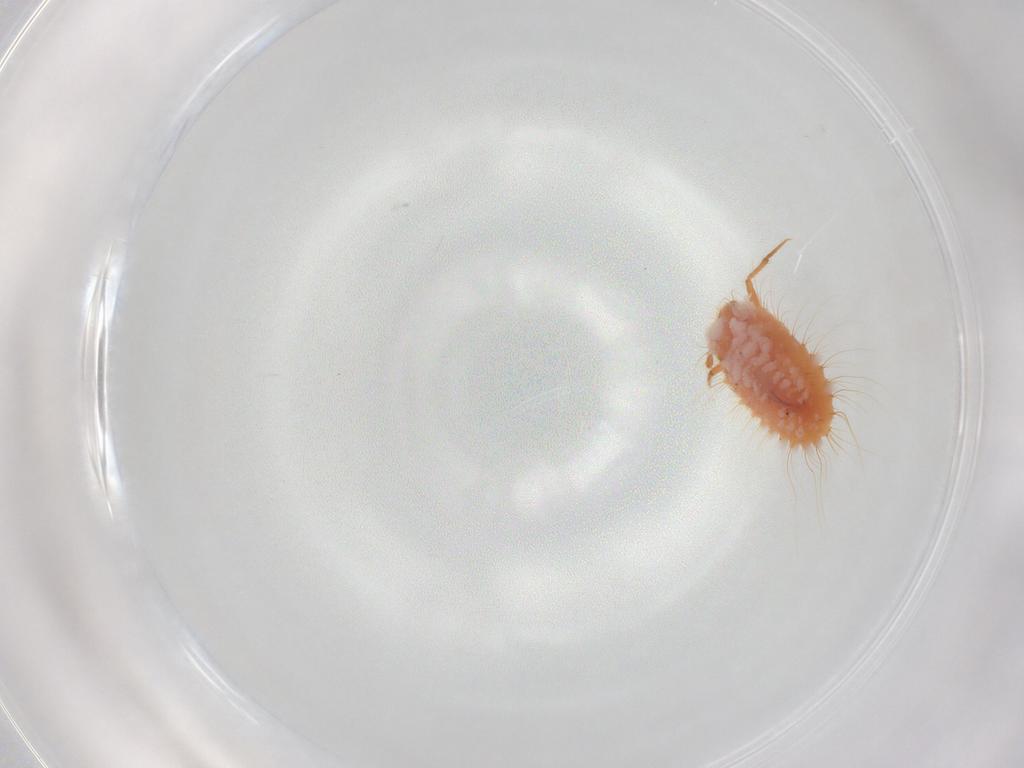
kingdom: Animalia
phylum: Arthropoda
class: Insecta
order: Hemiptera
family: Coccoidea_incertae_sedis
